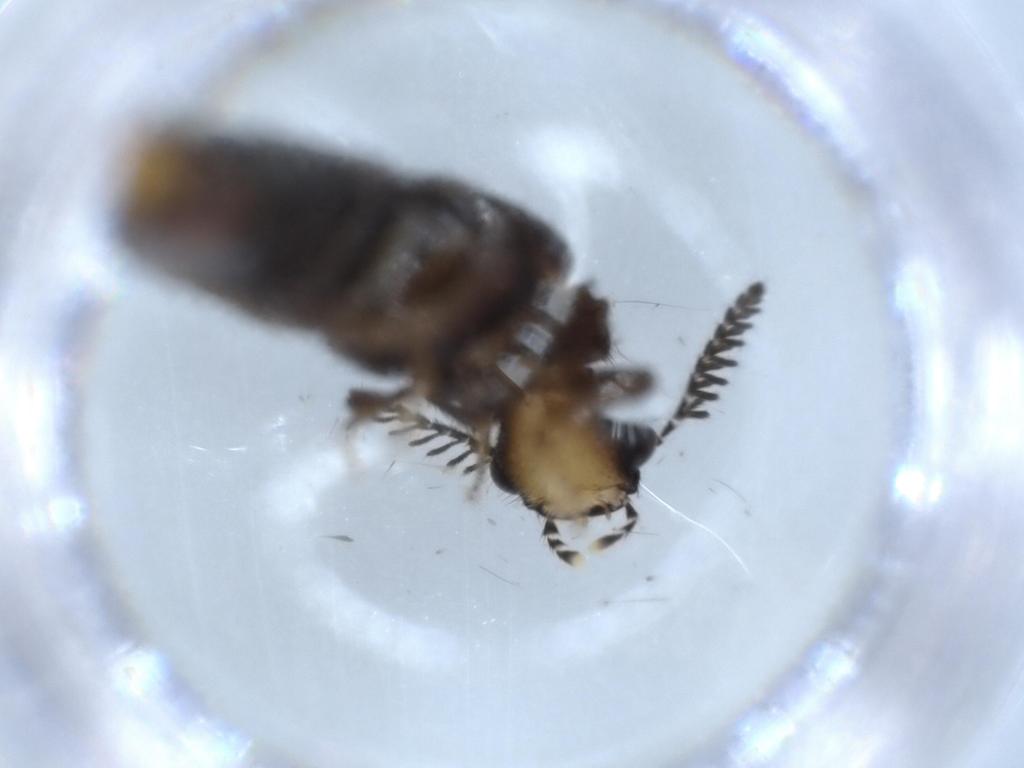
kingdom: Animalia
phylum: Arthropoda
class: Insecta
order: Coleoptera
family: Phengodidae
